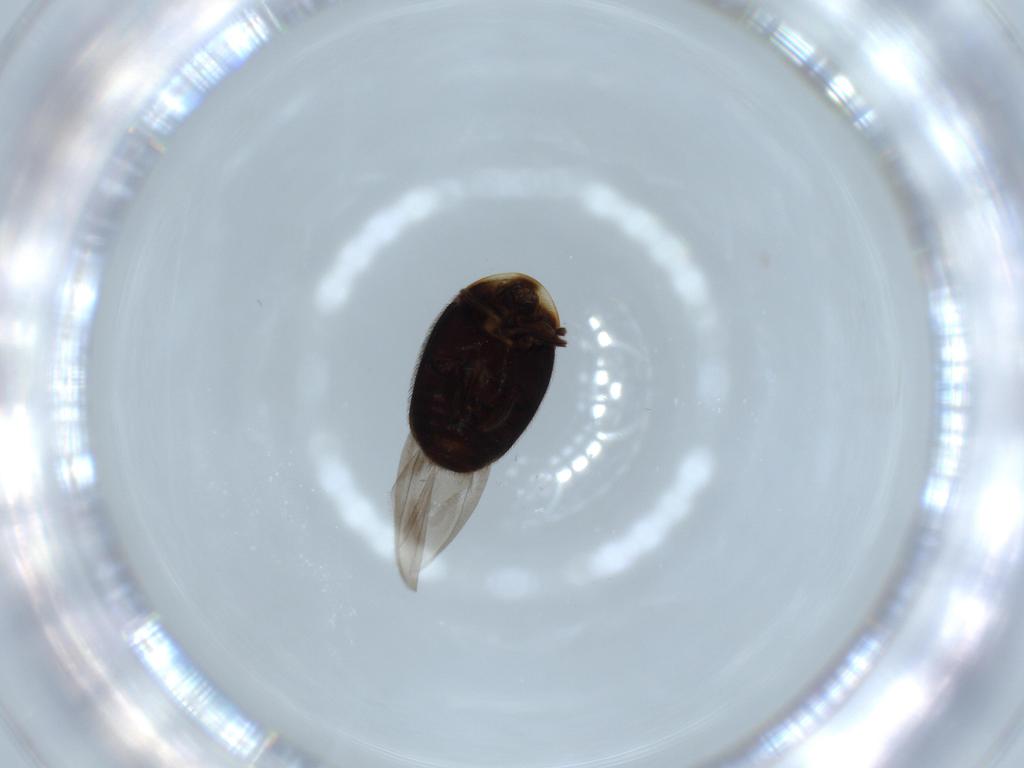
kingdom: Animalia
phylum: Arthropoda
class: Insecta
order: Coleoptera
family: Corylophidae
